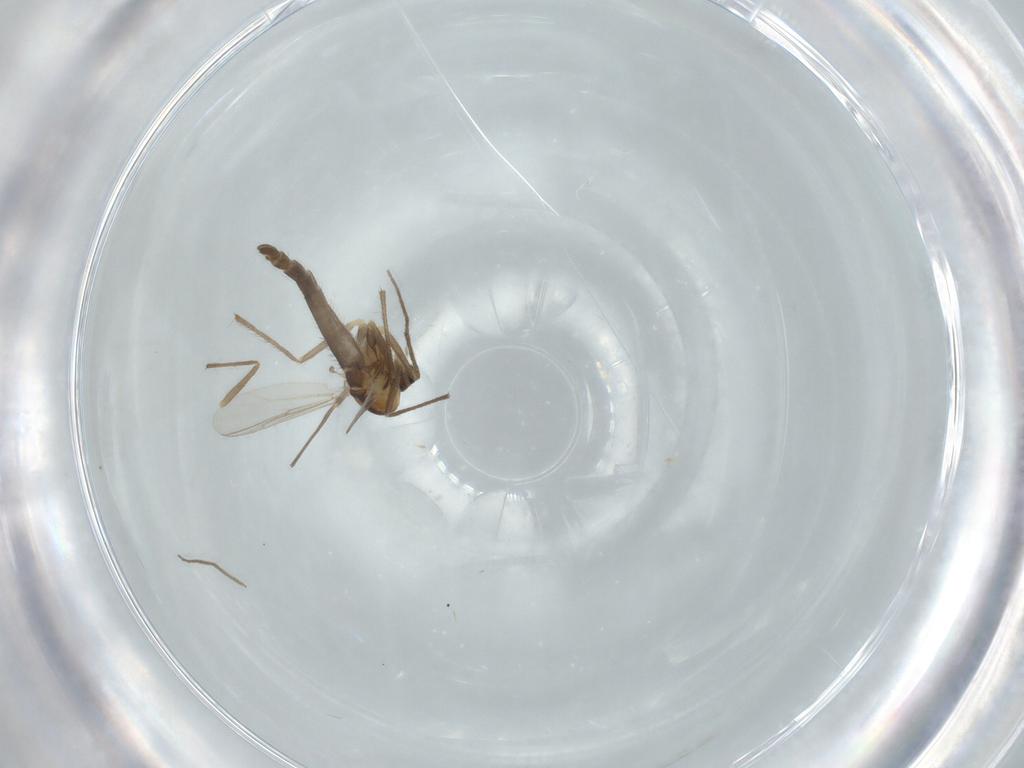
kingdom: Animalia
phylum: Arthropoda
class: Insecta
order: Diptera
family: Chironomidae
